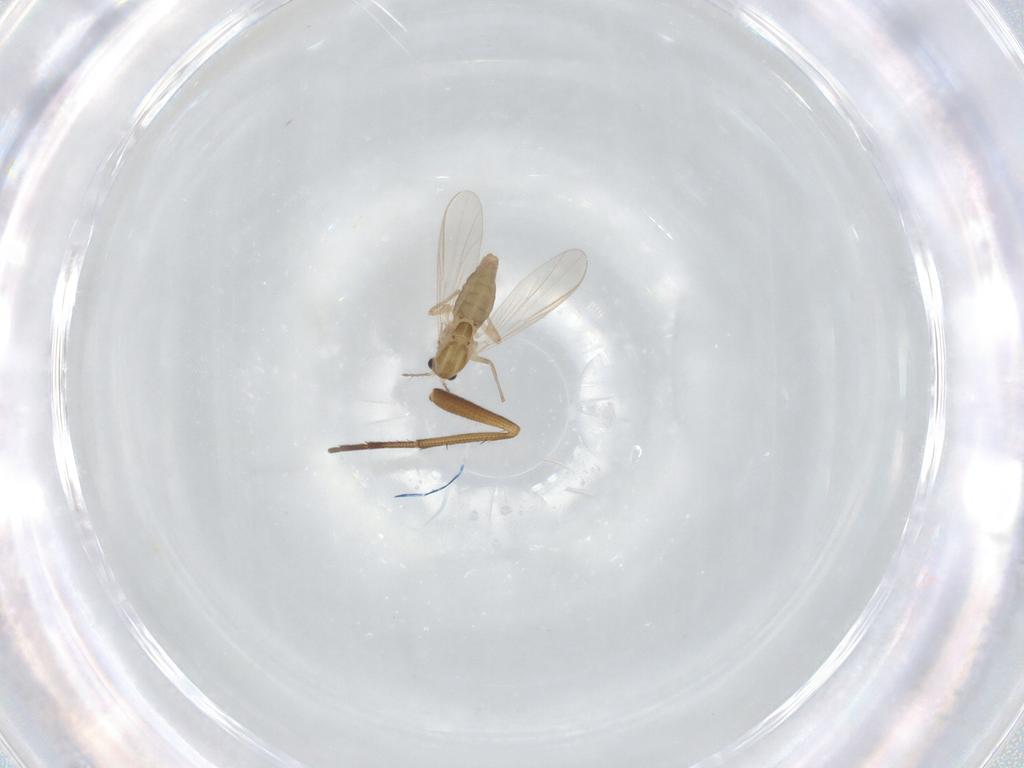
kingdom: Animalia
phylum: Arthropoda
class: Insecta
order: Diptera
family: Chironomidae
